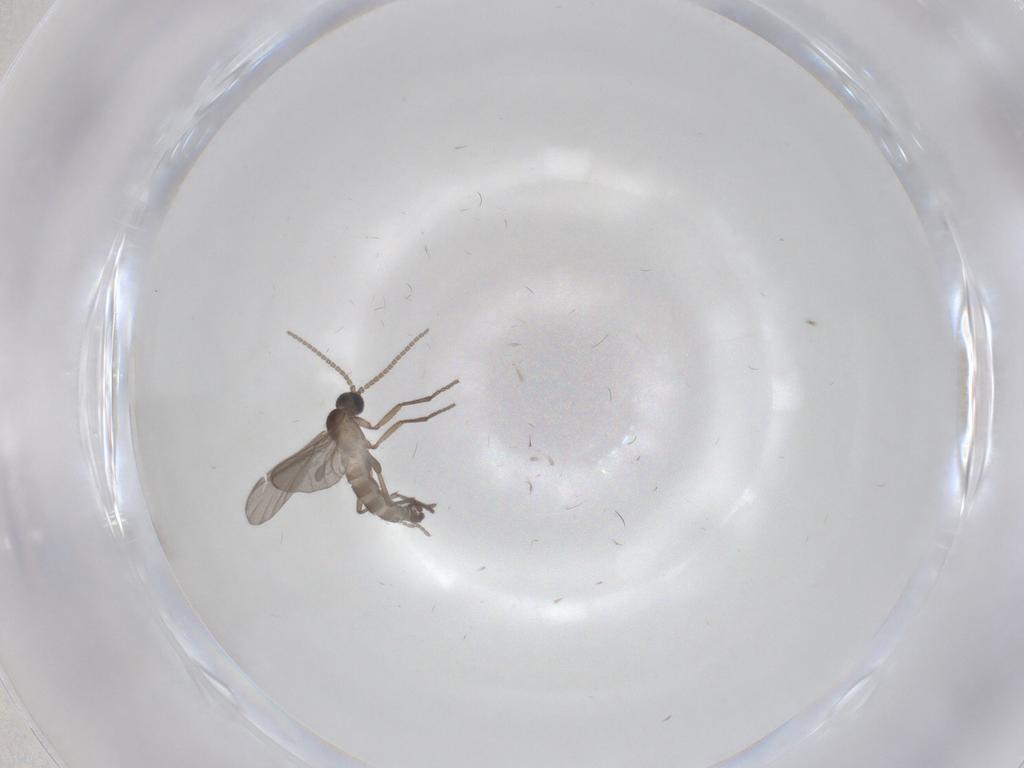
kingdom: Animalia
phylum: Arthropoda
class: Insecta
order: Diptera
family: Sciaridae
